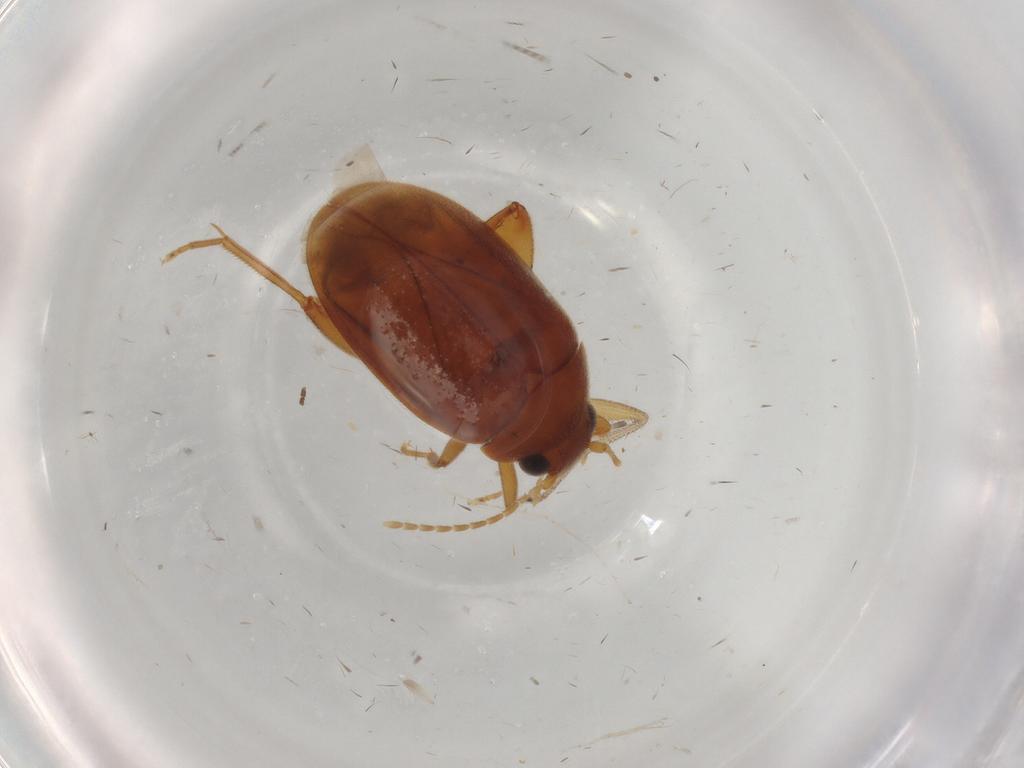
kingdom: Animalia
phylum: Arthropoda
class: Insecta
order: Coleoptera
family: Scirtidae
